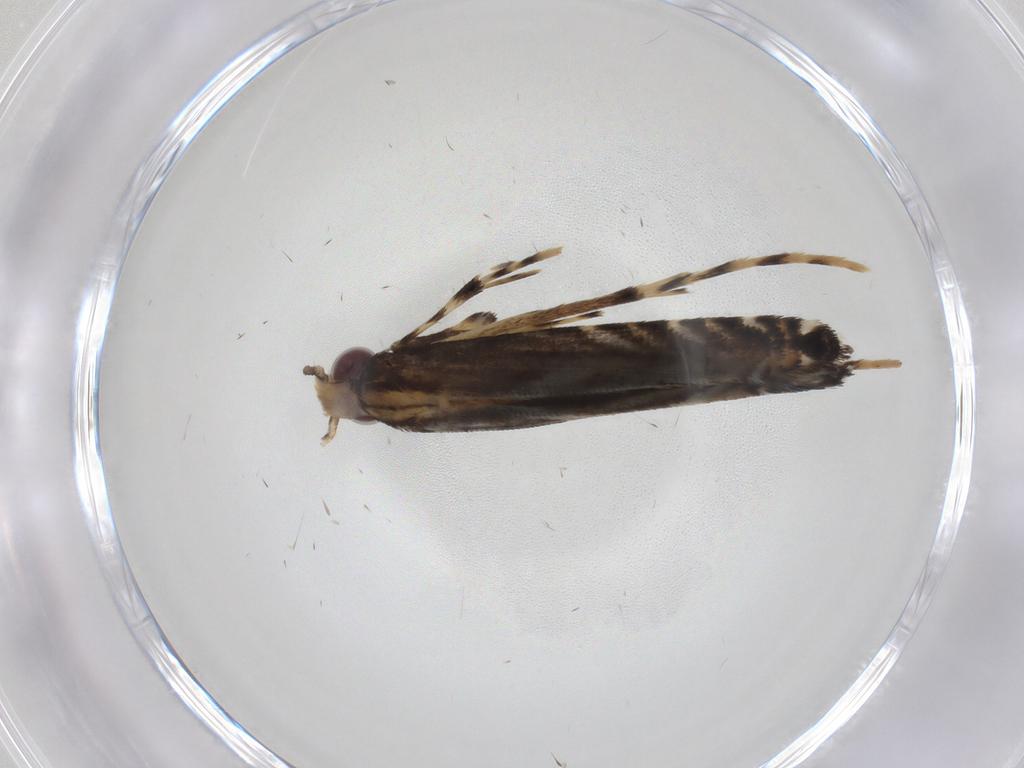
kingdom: Animalia
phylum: Arthropoda
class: Insecta
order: Lepidoptera
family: Gracillariidae
